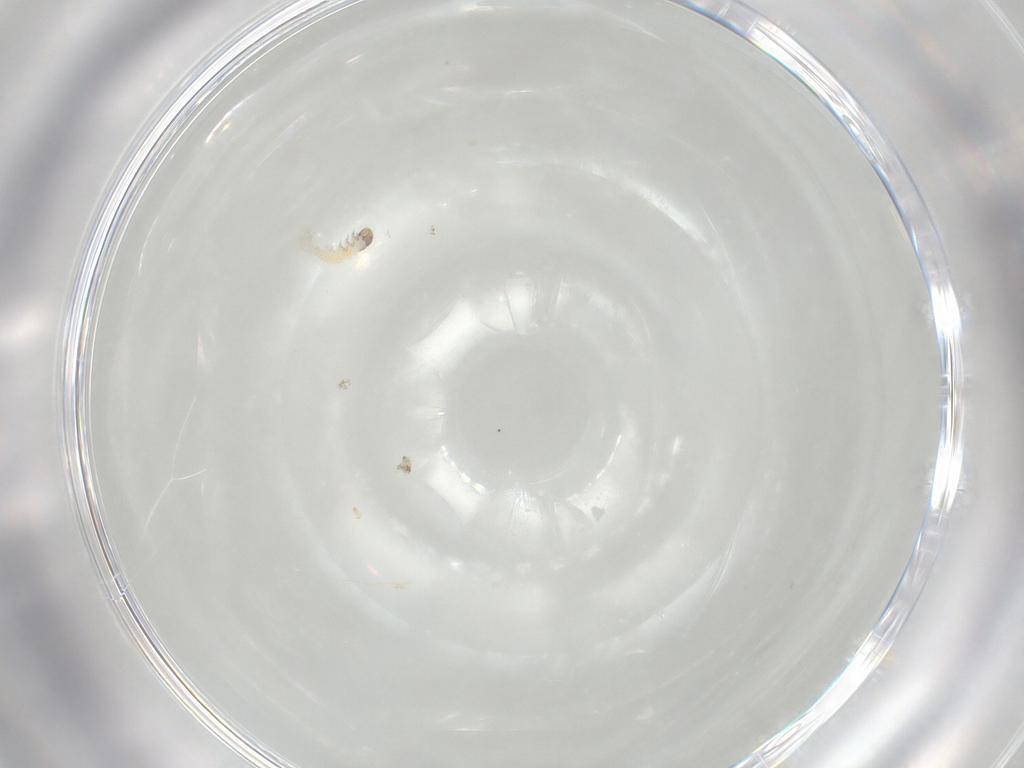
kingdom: Animalia
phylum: Arthropoda
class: Insecta
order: Lepidoptera
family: Lecithoceridae
